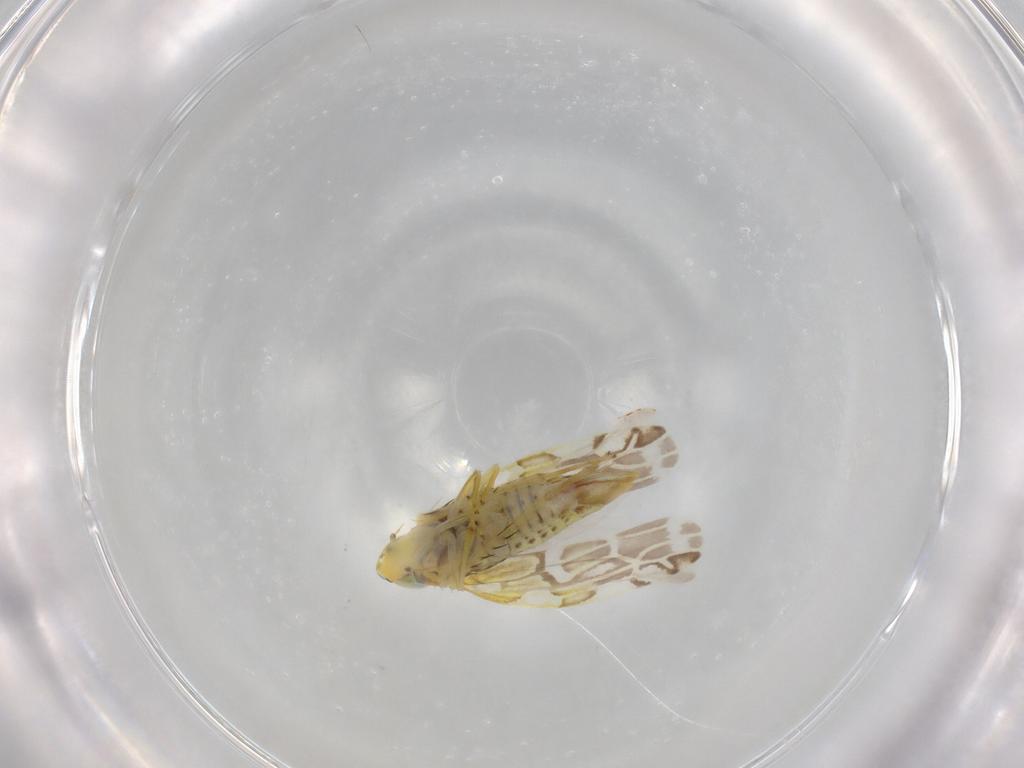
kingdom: Animalia
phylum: Arthropoda
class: Insecta
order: Hemiptera
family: Cicadellidae
